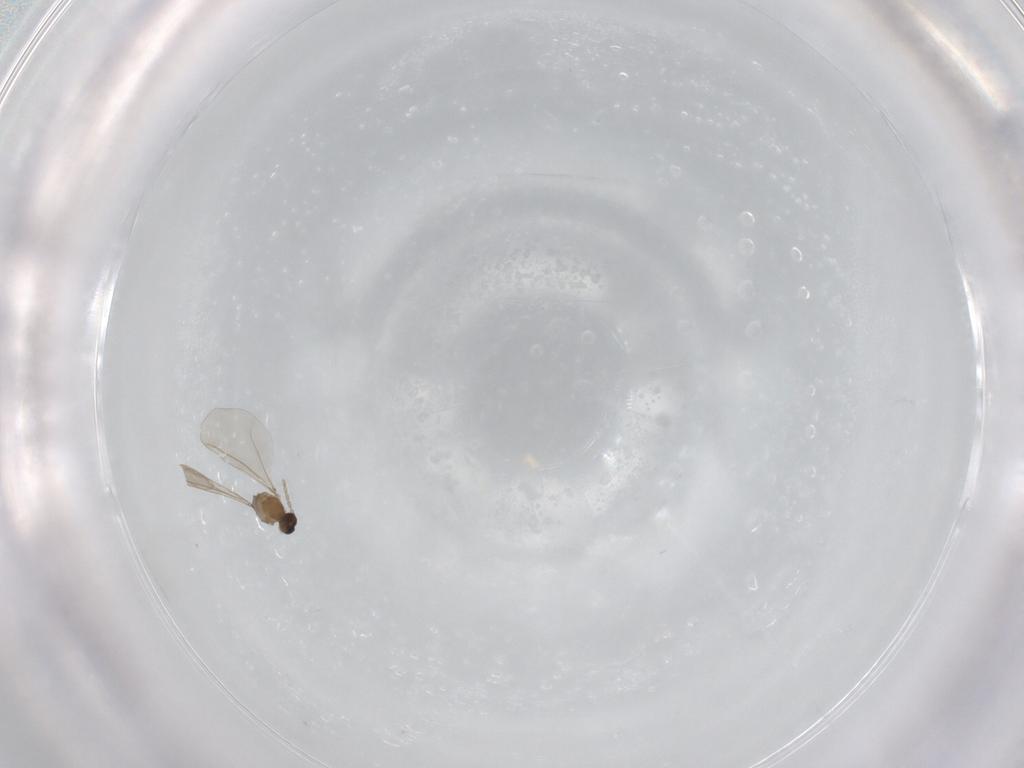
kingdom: Animalia
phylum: Arthropoda
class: Insecta
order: Diptera
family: Cecidomyiidae
